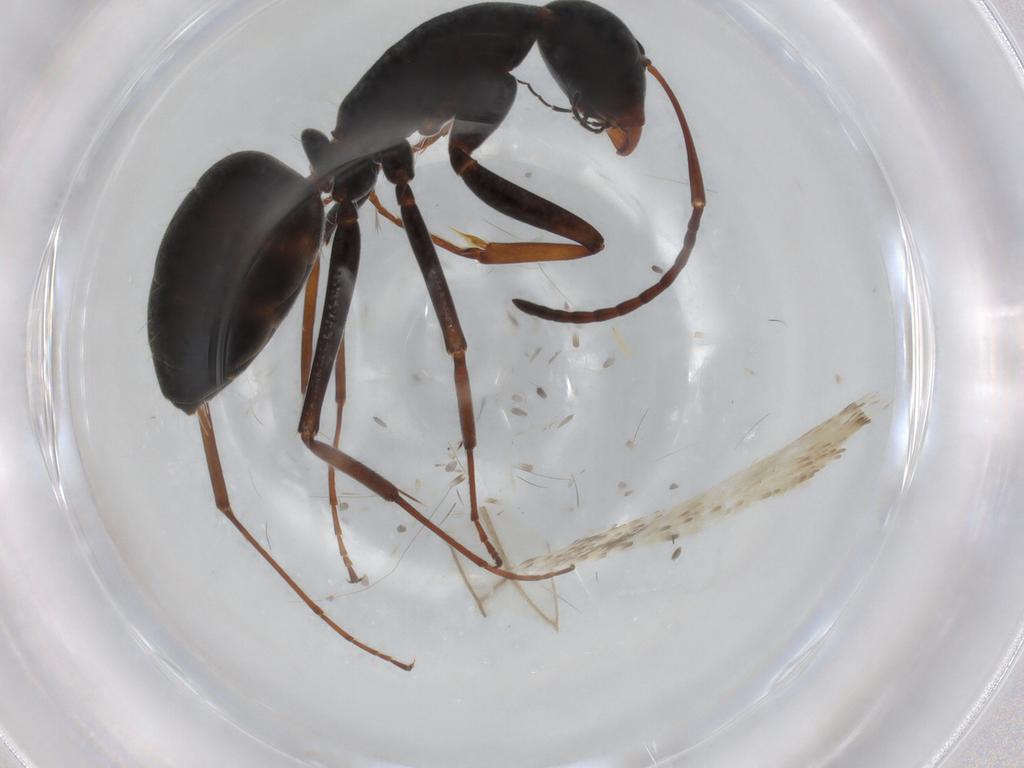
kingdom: Animalia
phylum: Arthropoda
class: Insecta
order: Hymenoptera
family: Formicidae
